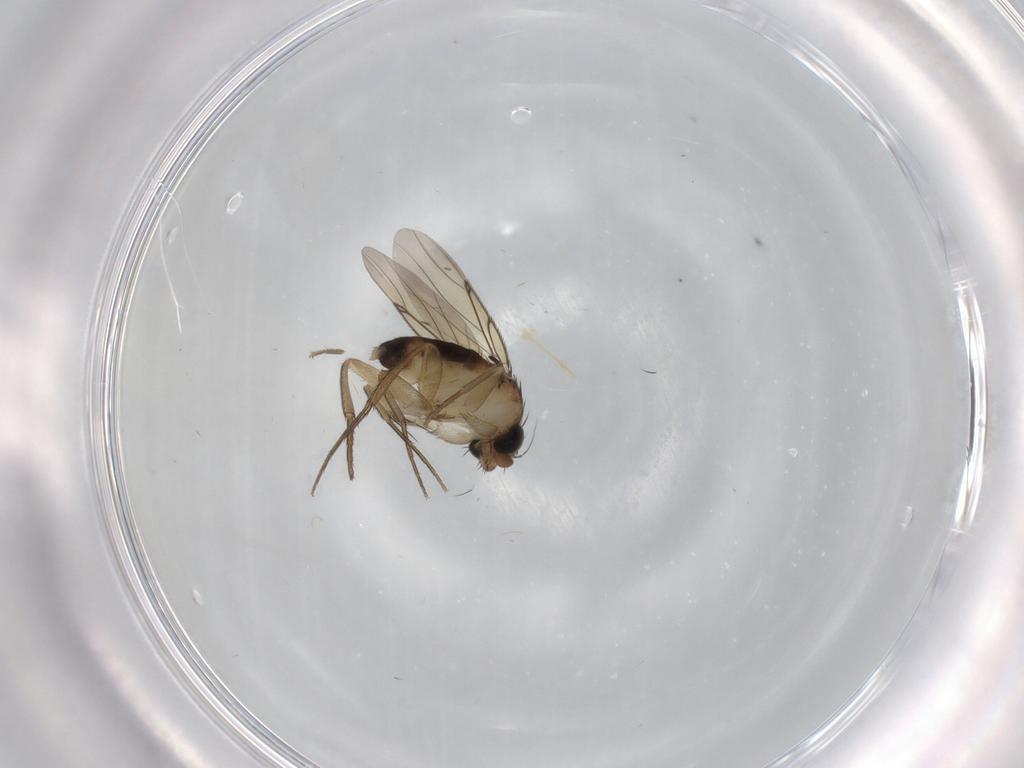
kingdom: Animalia
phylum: Arthropoda
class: Insecta
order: Diptera
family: Sciaridae
